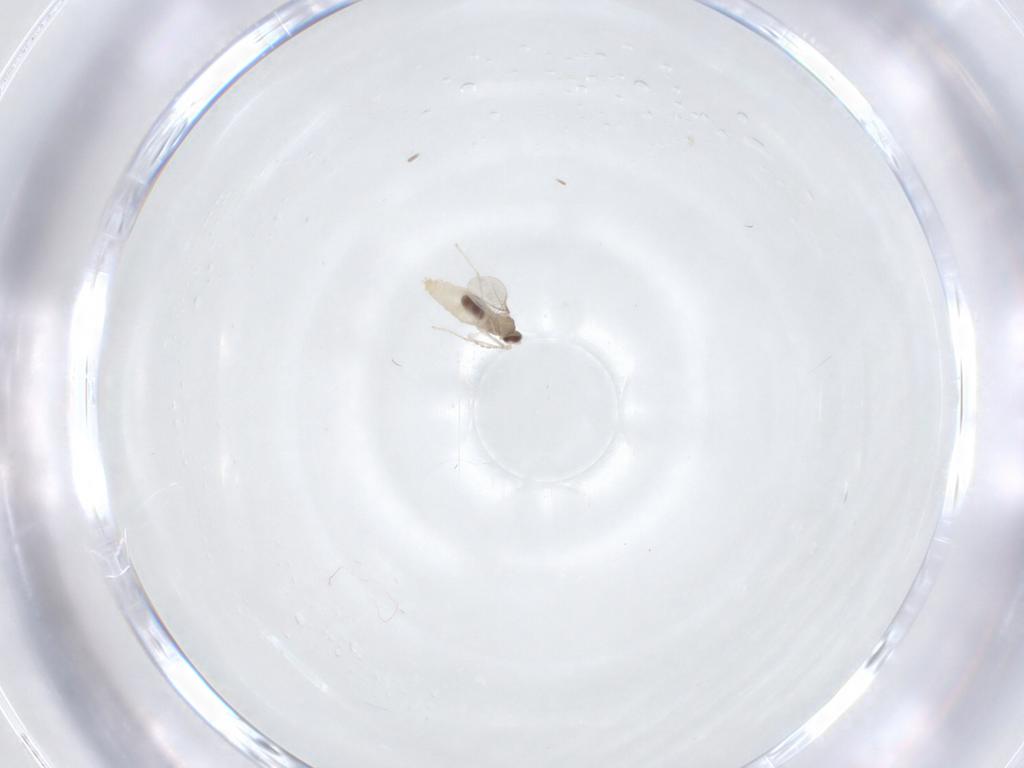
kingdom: Animalia
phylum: Arthropoda
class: Insecta
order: Diptera
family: Cecidomyiidae
